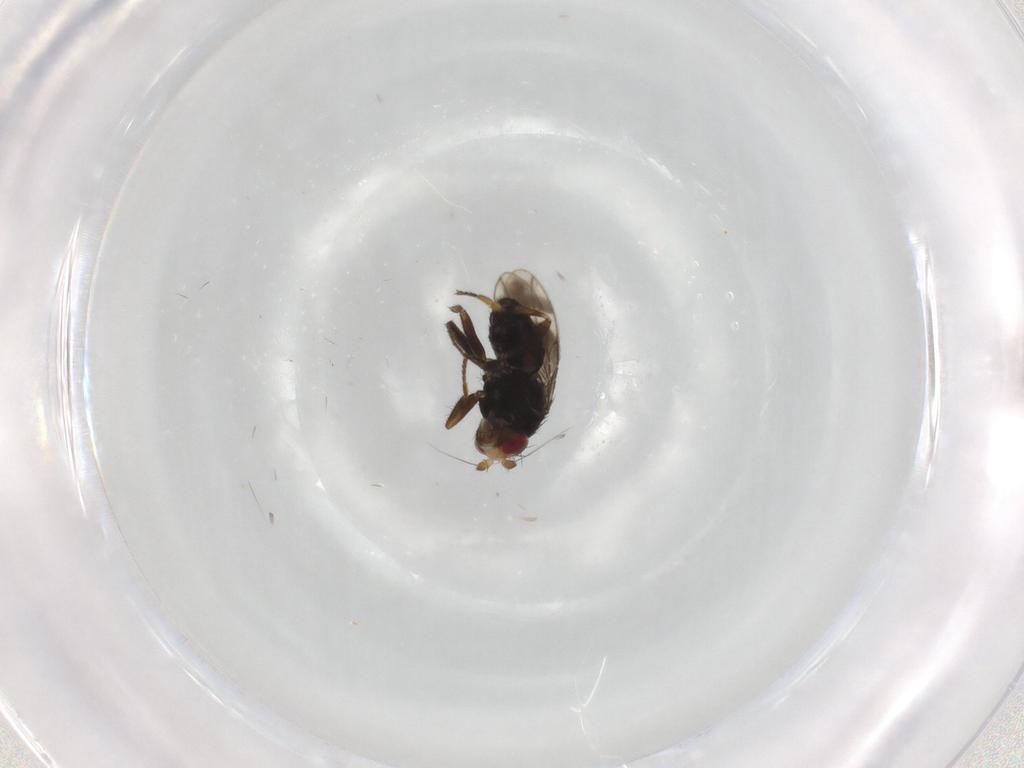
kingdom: Animalia
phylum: Arthropoda
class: Insecta
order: Diptera
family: Sphaeroceridae
